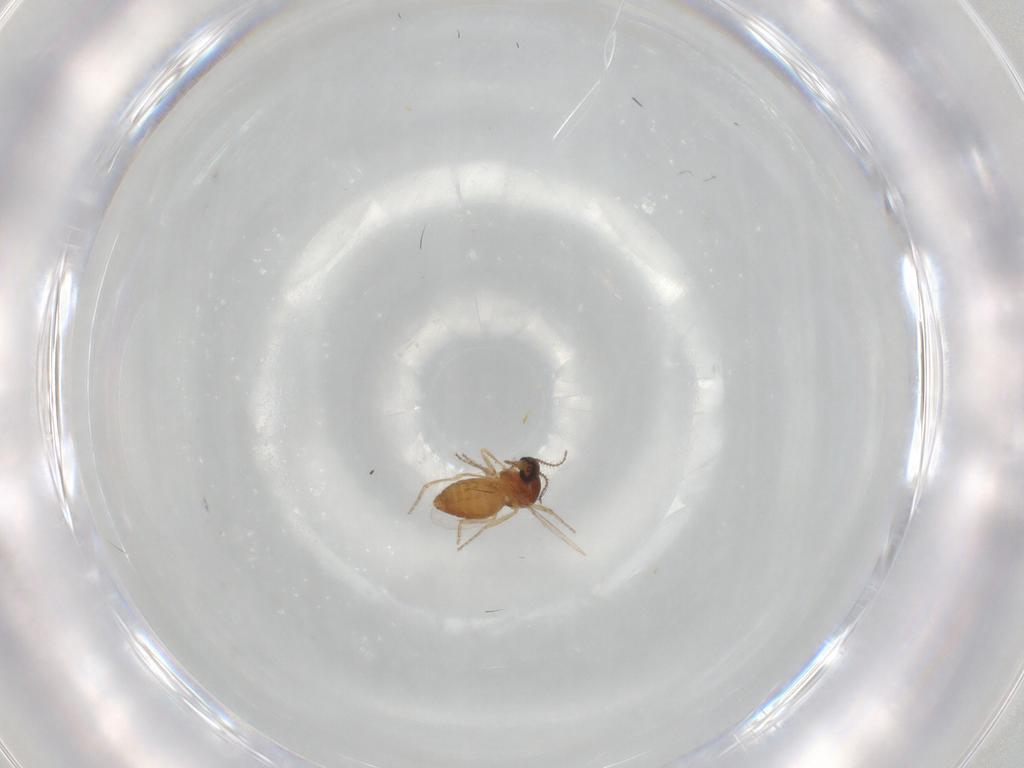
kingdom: Animalia
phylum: Arthropoda
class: Insecta
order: Diptera
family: Ceratopogonidae
